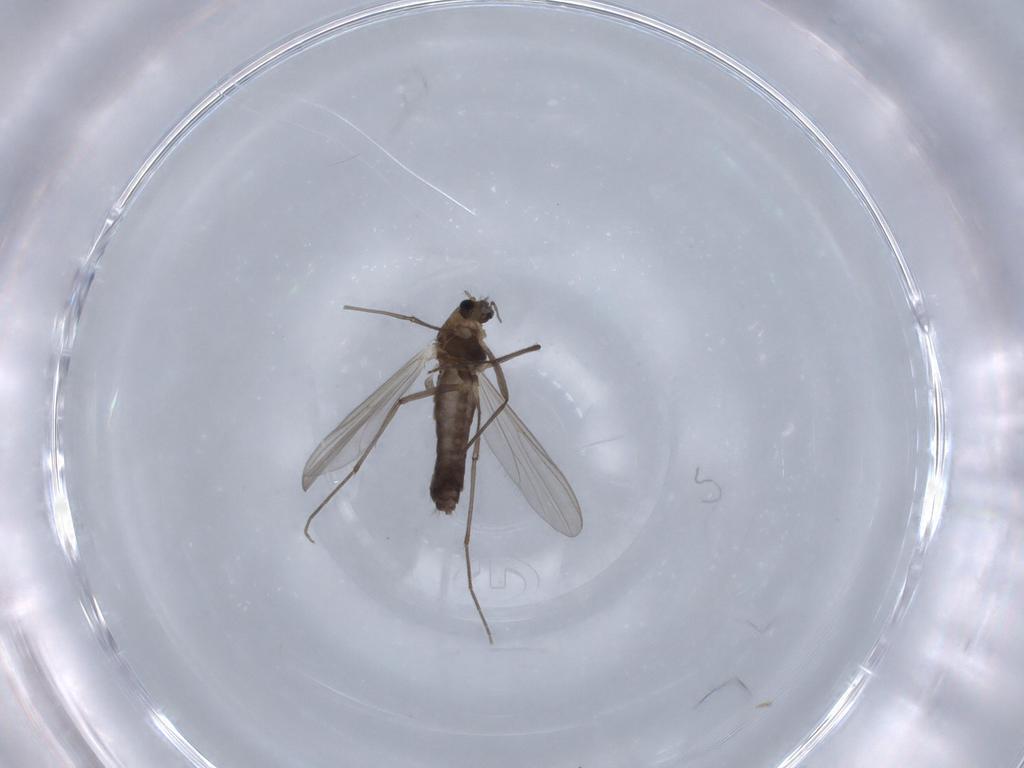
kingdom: Animalia
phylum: Arthropoda
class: Insecta
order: Diptera
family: Chironomidae
